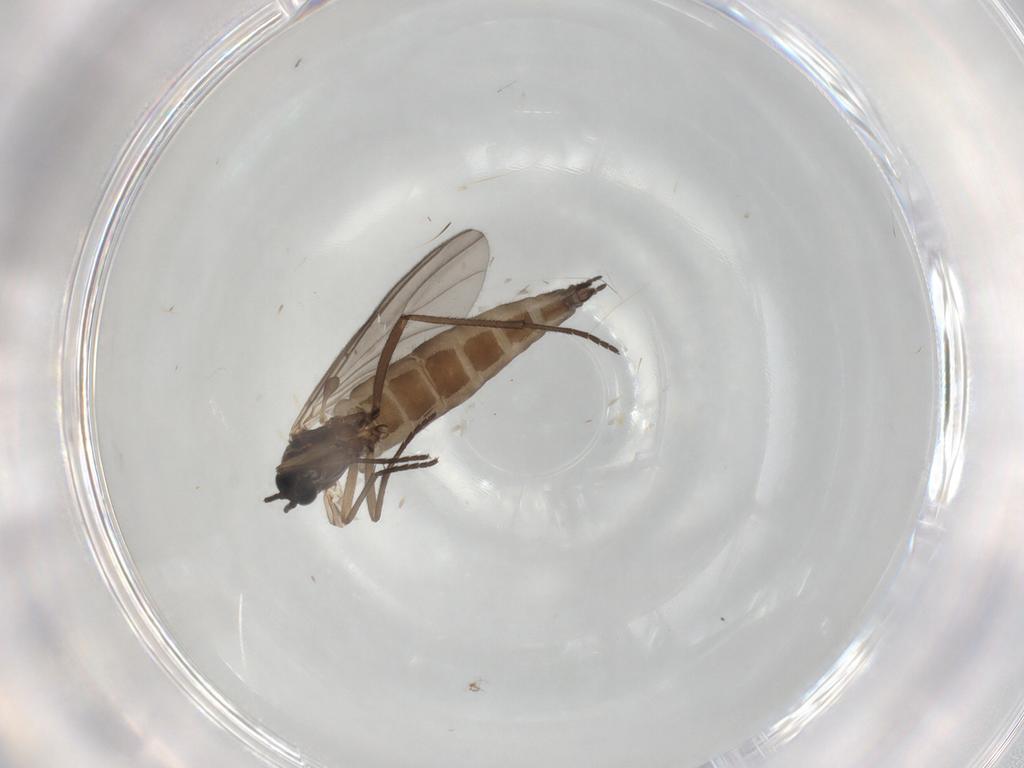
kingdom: Animalia
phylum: Arthropoda
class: Insecta
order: Diptera
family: Sciaridae
